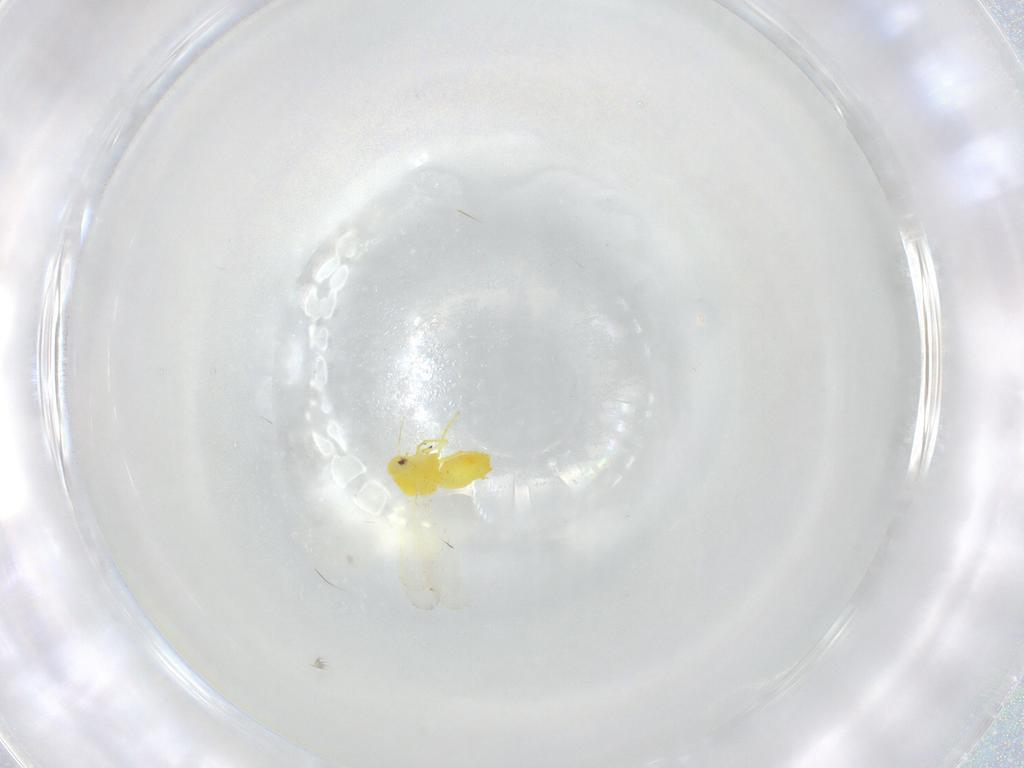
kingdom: Animalia
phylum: Arthropoda
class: Insecta
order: Hemiptera
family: Aleyrodidae
